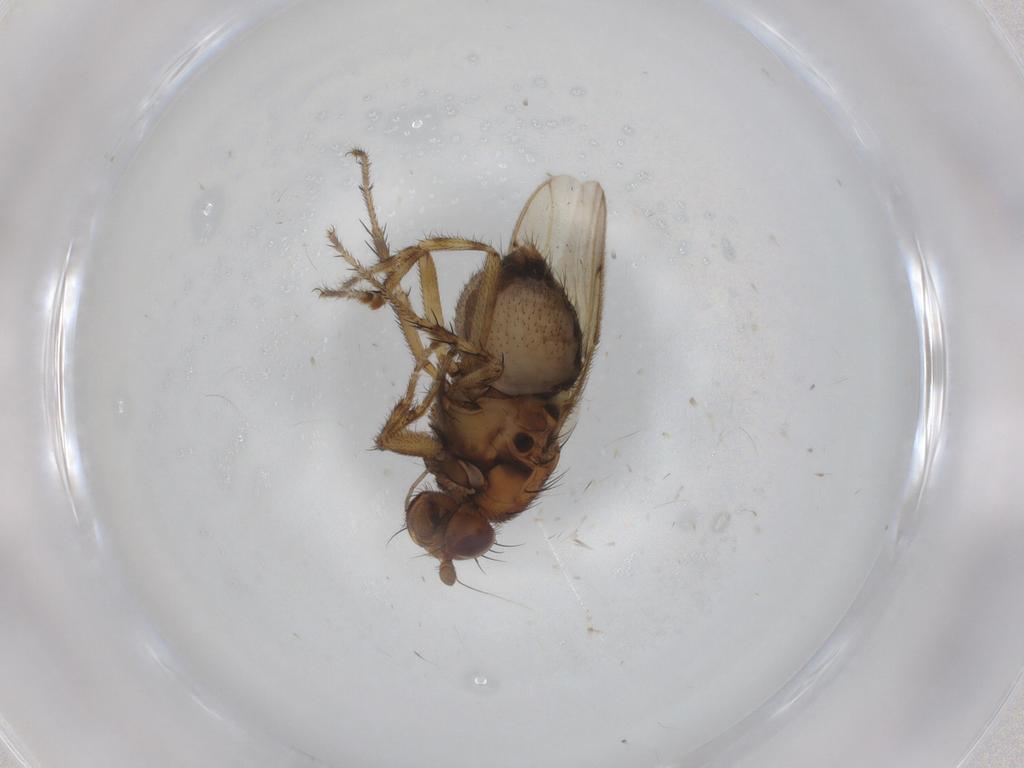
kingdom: Animalia
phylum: Arthropoda
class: Insecta
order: Diptera
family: Sphaeroceridae
